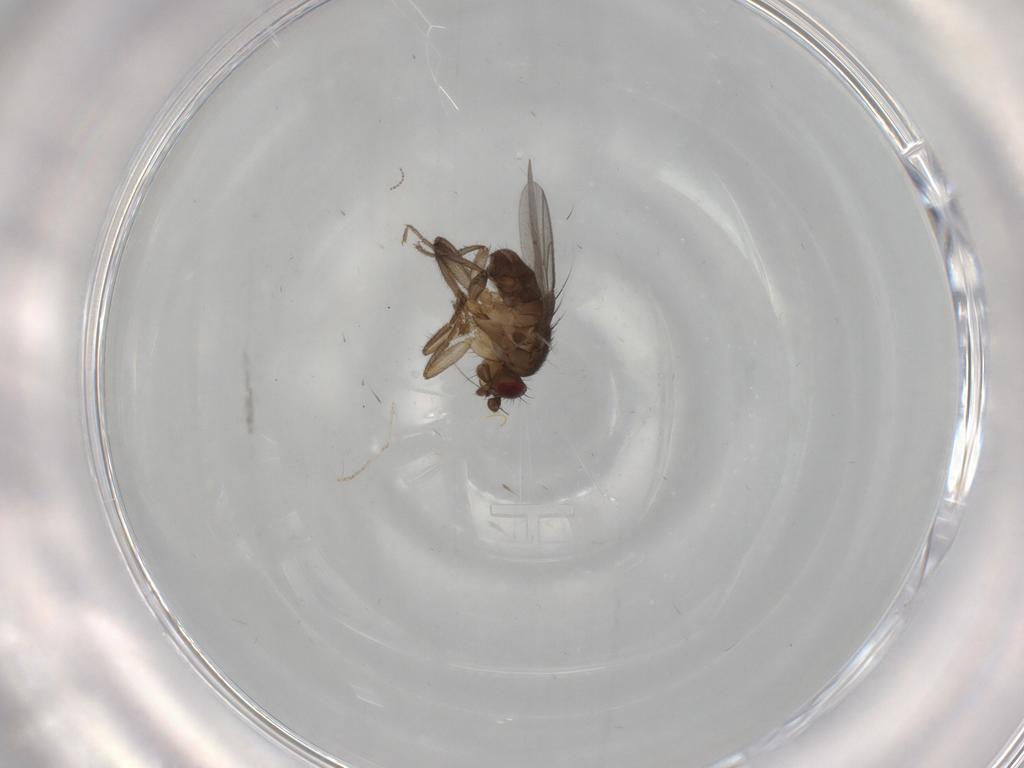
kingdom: Animalia
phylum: Arthropoda
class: Insecta
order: Diptera
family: Sphaeroceridae
